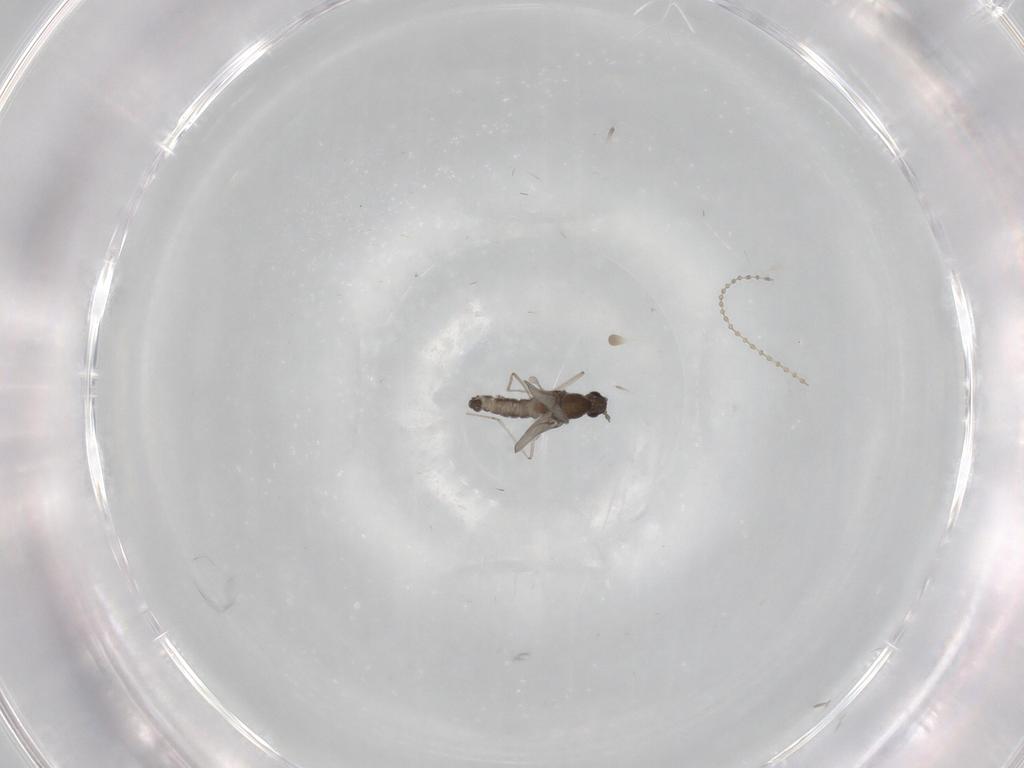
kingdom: Animalia
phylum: Arthropoda
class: Insecta
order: Diptera
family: Cecidomyiidae
